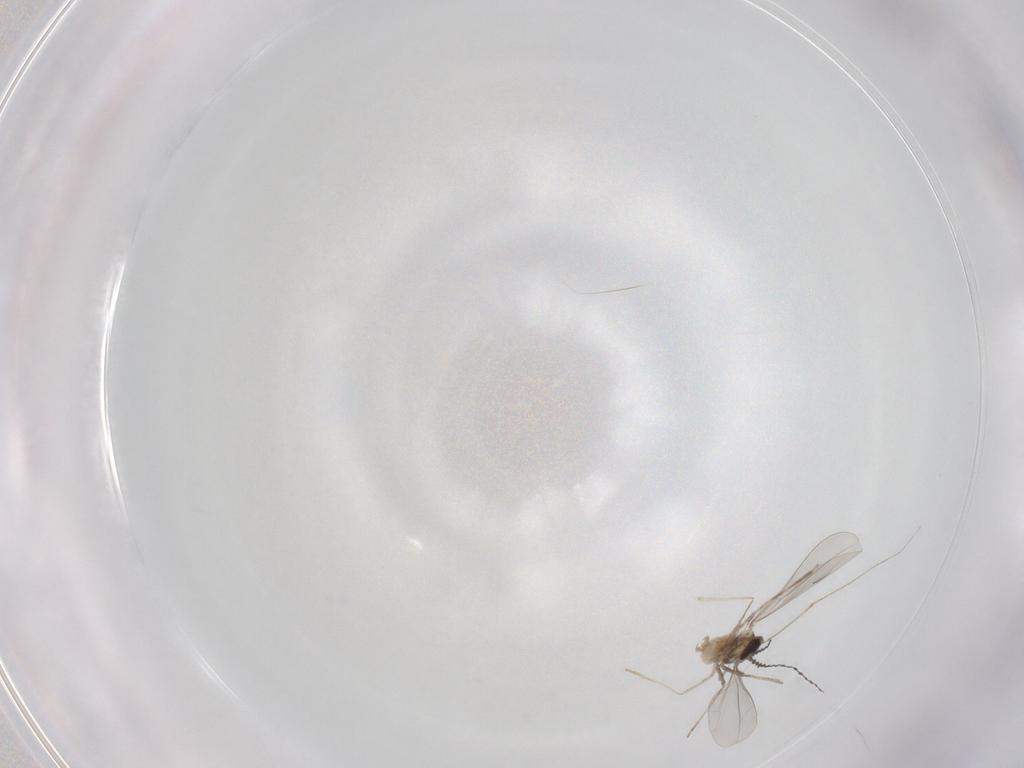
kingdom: Animalia
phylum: Arthropoda
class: Insecta
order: Diptera
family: Cecidomyiidae
